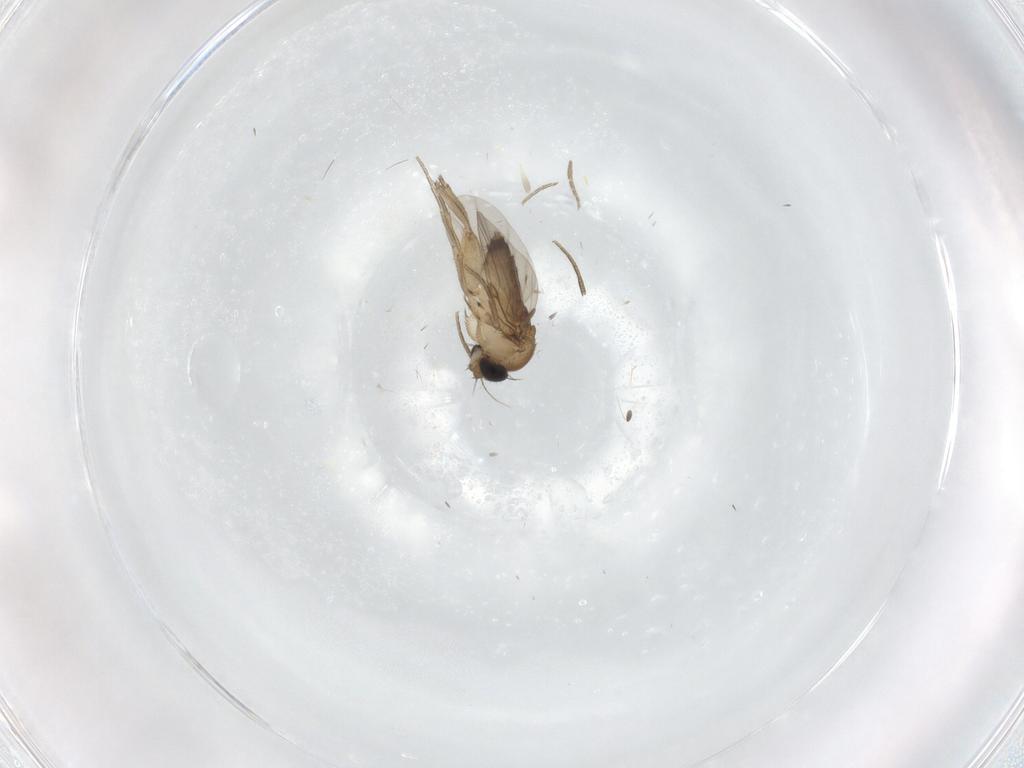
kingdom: Animalia
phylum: Arthropoda
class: Insecta
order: Diptera
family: Phoridae
